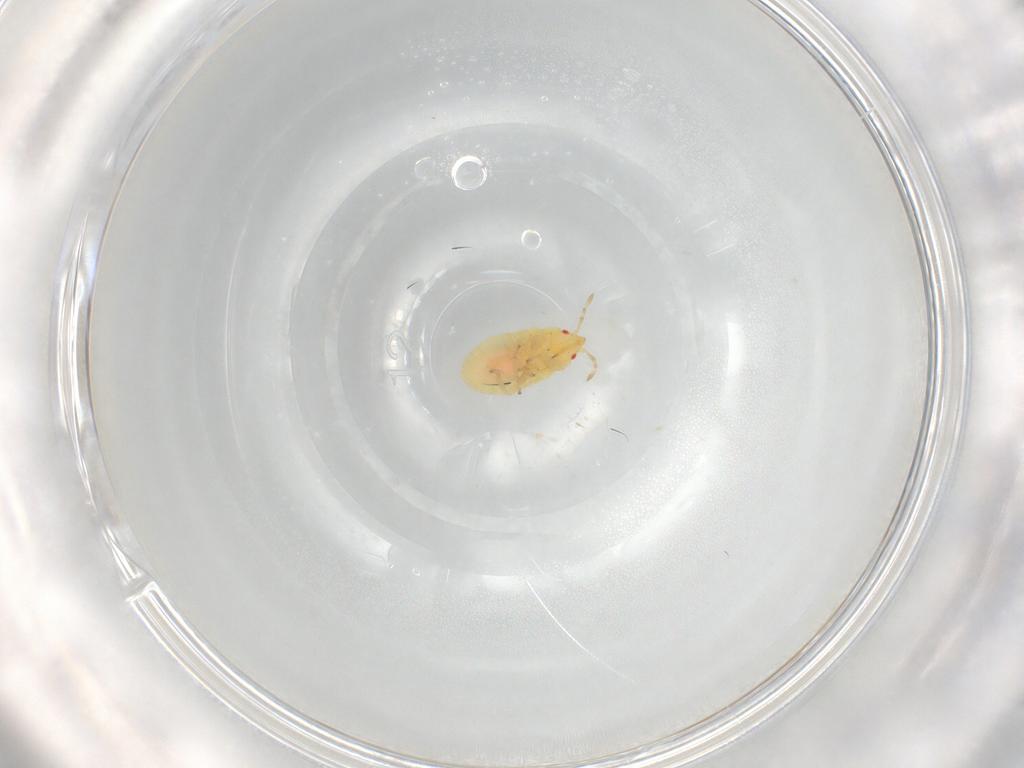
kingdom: Animalia
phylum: Arthropoda
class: Insecta
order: Hemiptera
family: Anthocoridae
